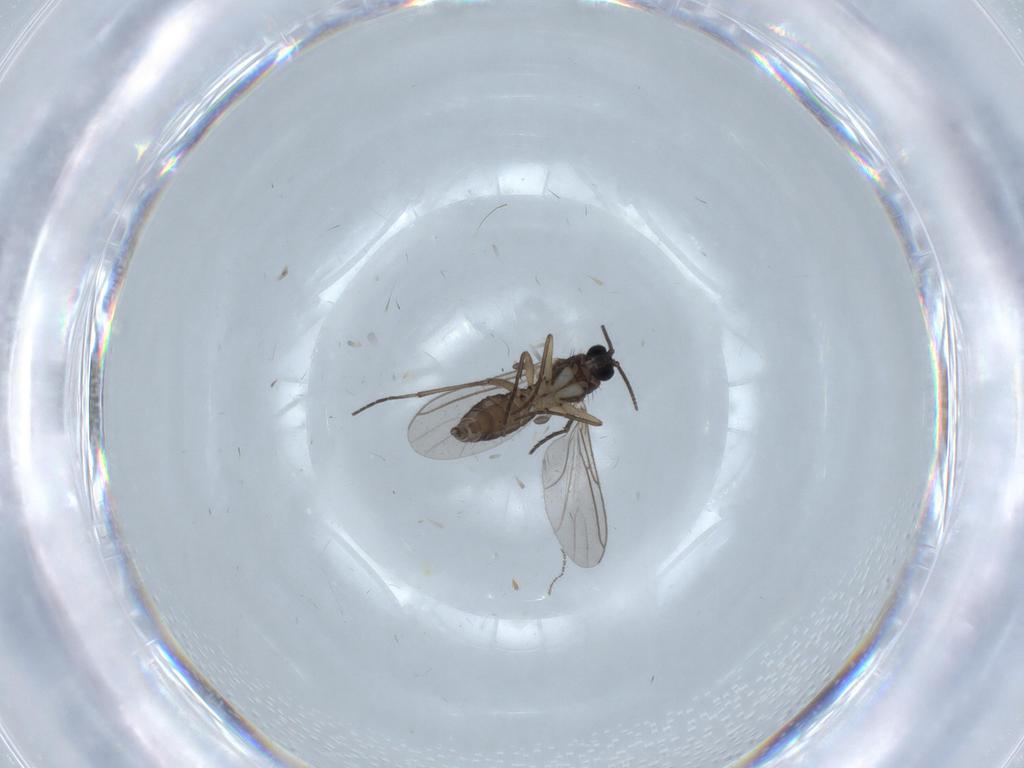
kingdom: Animalia
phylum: Arthropoda
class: Insecta
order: Diptera
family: Sciaridae
